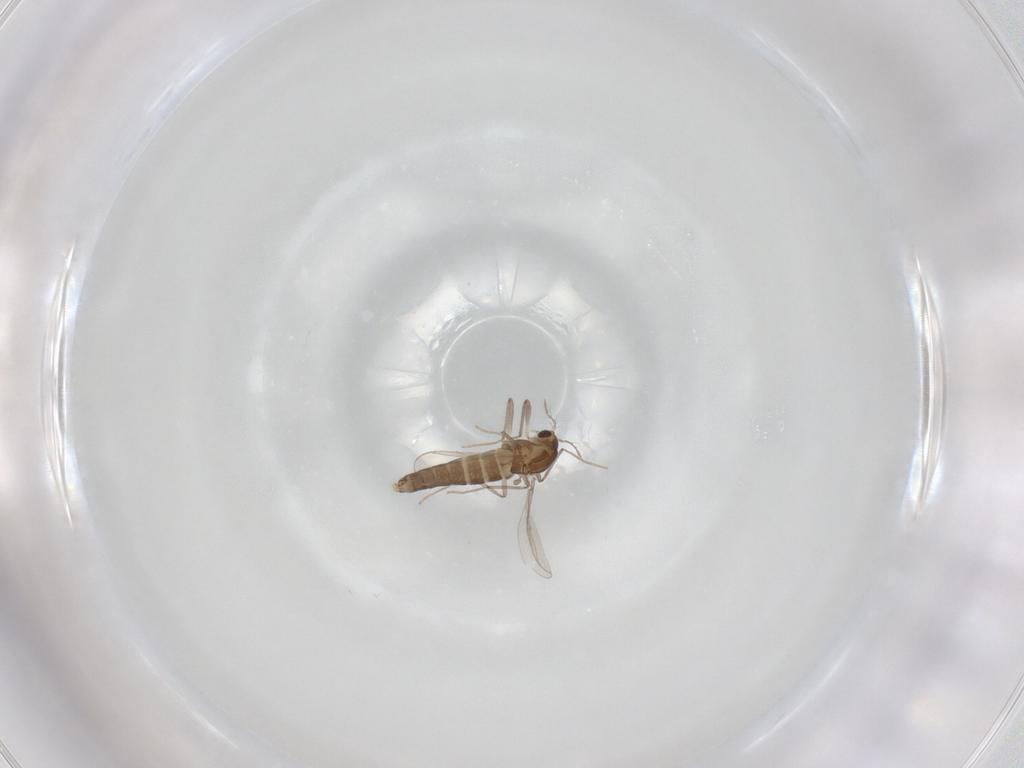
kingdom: Animalia
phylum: Arthropoda
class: Insecta
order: Diptera
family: Chironomidae
